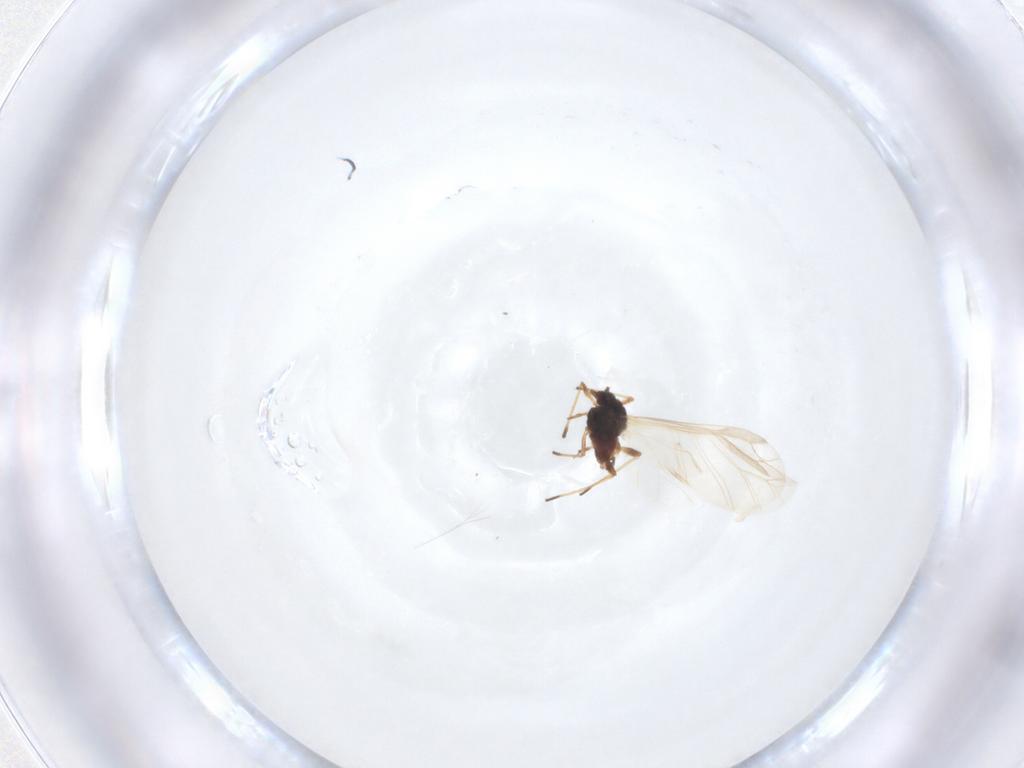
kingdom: Animalia
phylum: Arthropoda
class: Insecta
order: Hemiptera
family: Aphididae
